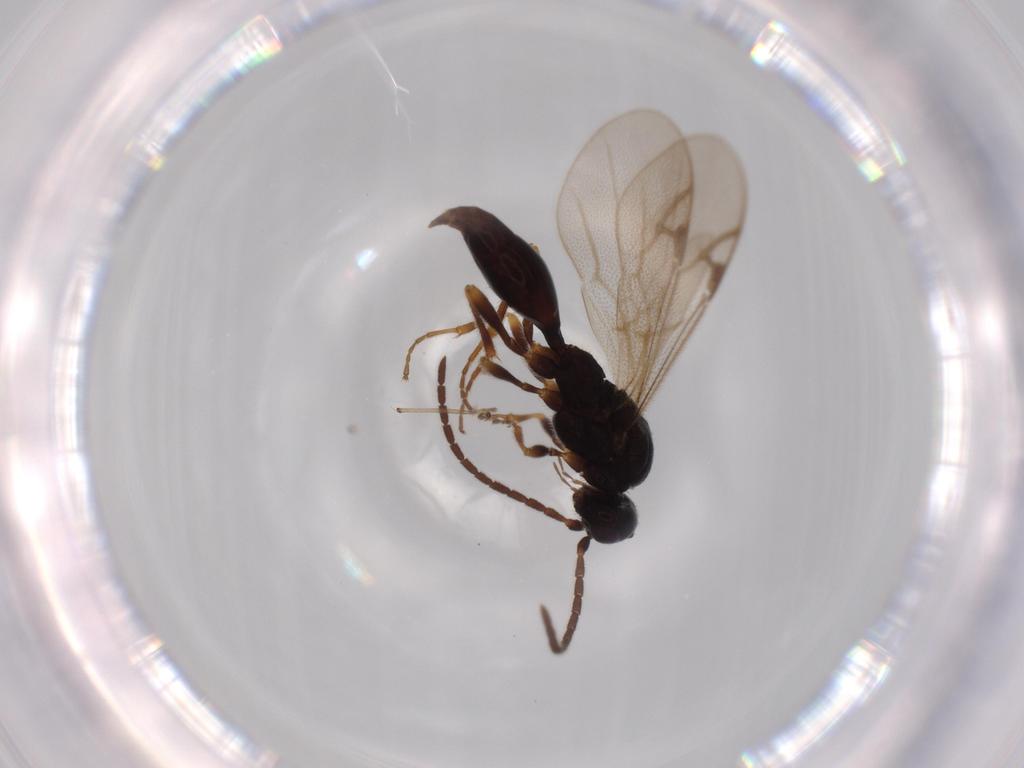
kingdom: Animalia
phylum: Arthropoda
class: Insecta
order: Hymenoptera
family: Proctotrupidae
